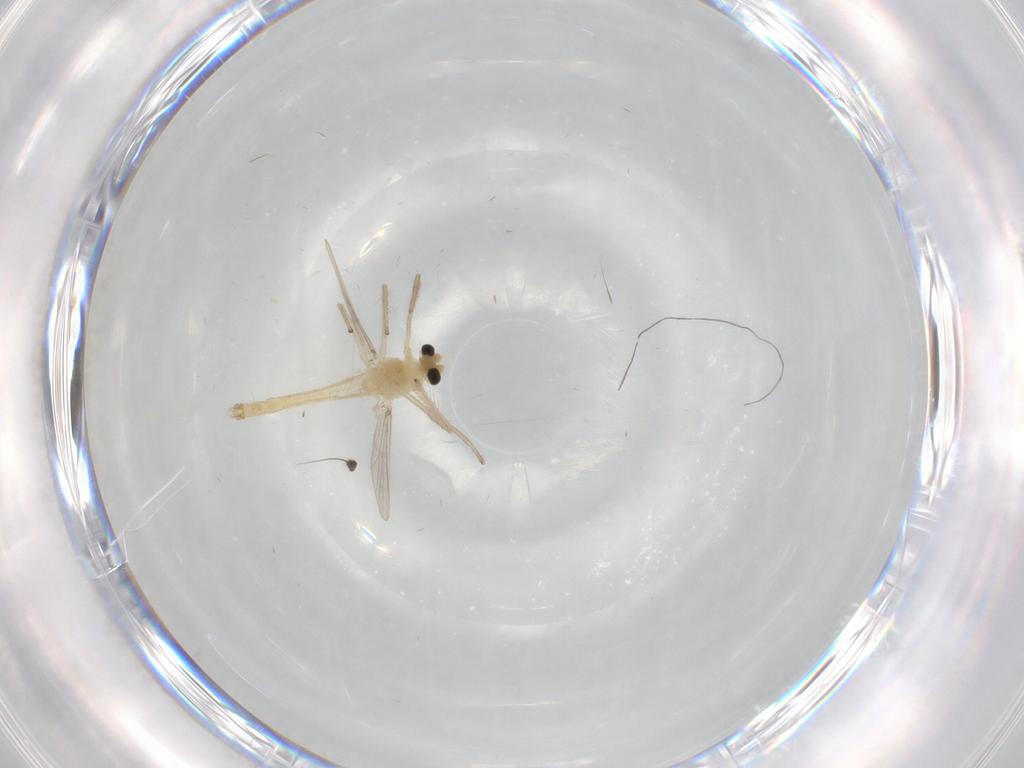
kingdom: Animalia
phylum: Arthropoda
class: Insecta
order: Diptera
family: Chironomidae
